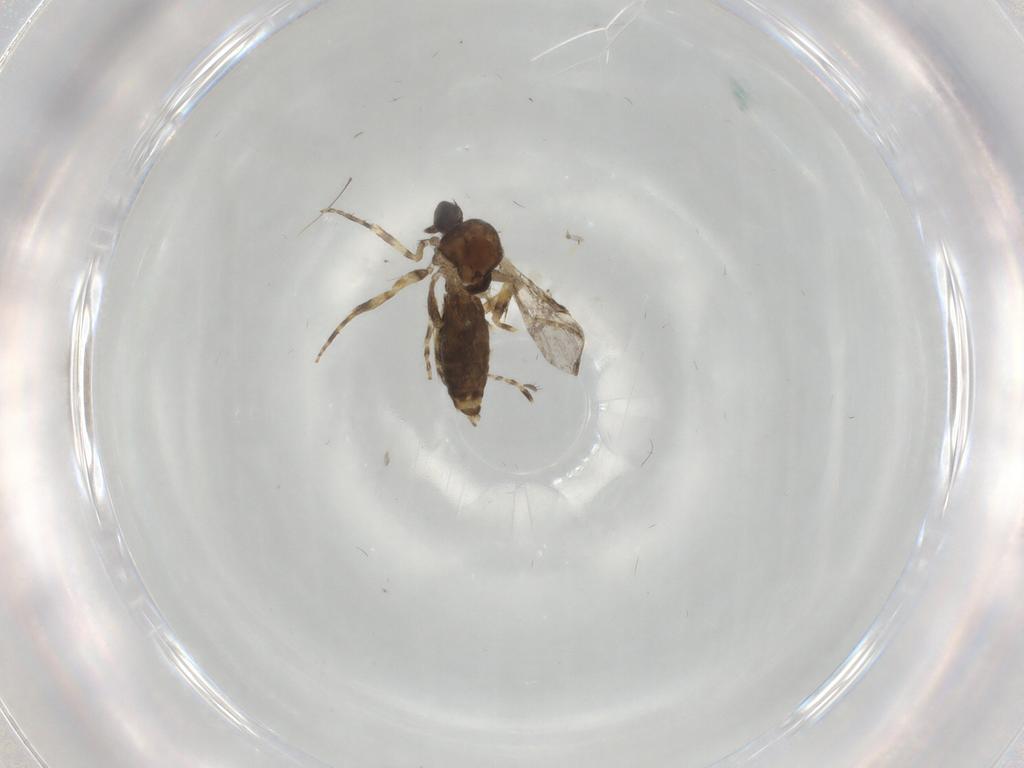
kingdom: Animalia
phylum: Arthropoda
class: Insecta
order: Diptera
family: Ceratopogonidae
